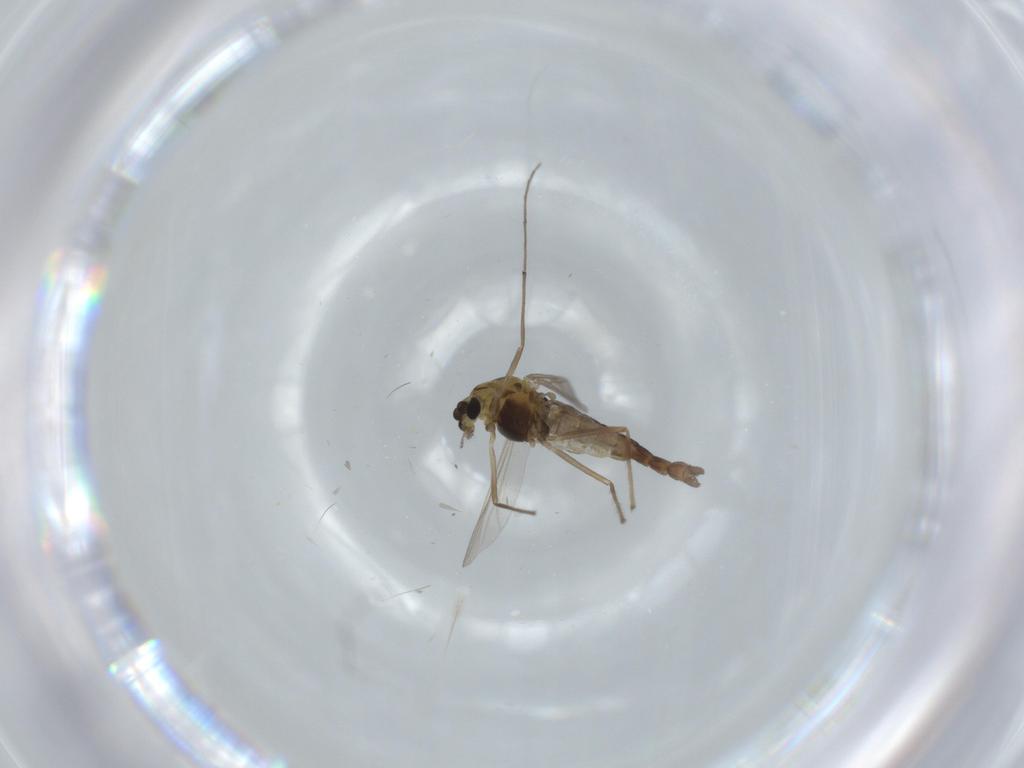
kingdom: Animalia
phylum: Arthropoda
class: Insecta
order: Diptera
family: Chironomidae
